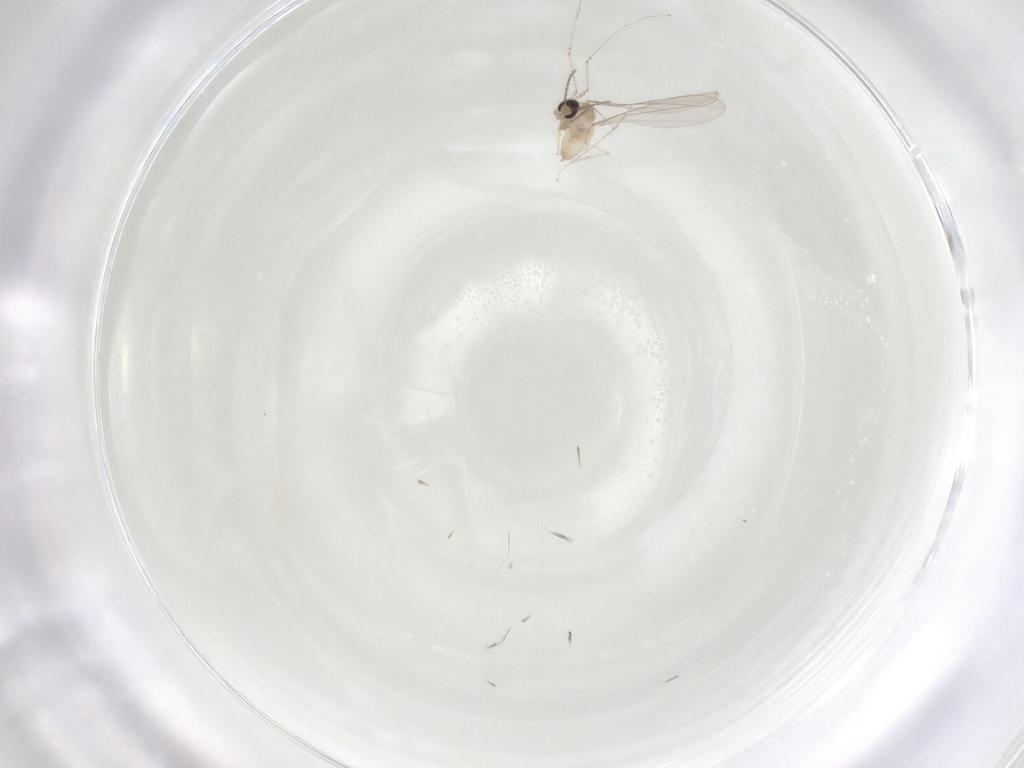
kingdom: Animalia
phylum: Arthropoda
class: Insecta
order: Diptera
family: Cecidomyiidae
